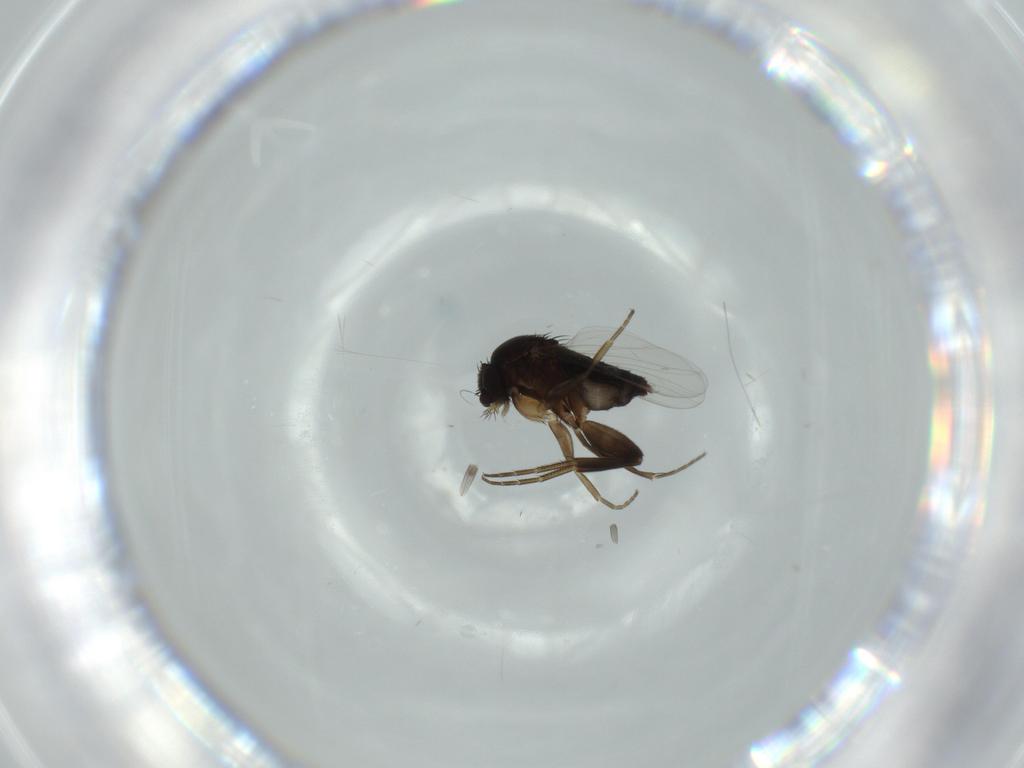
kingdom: Animalia
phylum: Arthropoda
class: Insecta
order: Diptera
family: Phoridae
